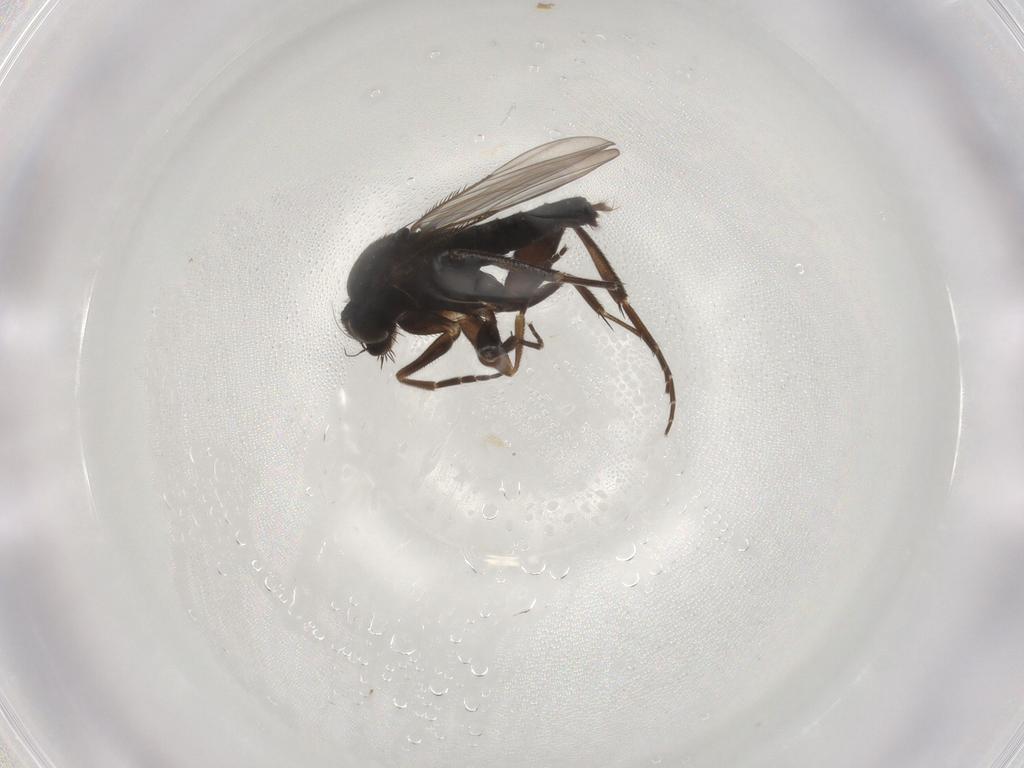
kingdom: Animalia
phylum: Arthropoda
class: Insecta
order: Diptera
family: Phoridae
